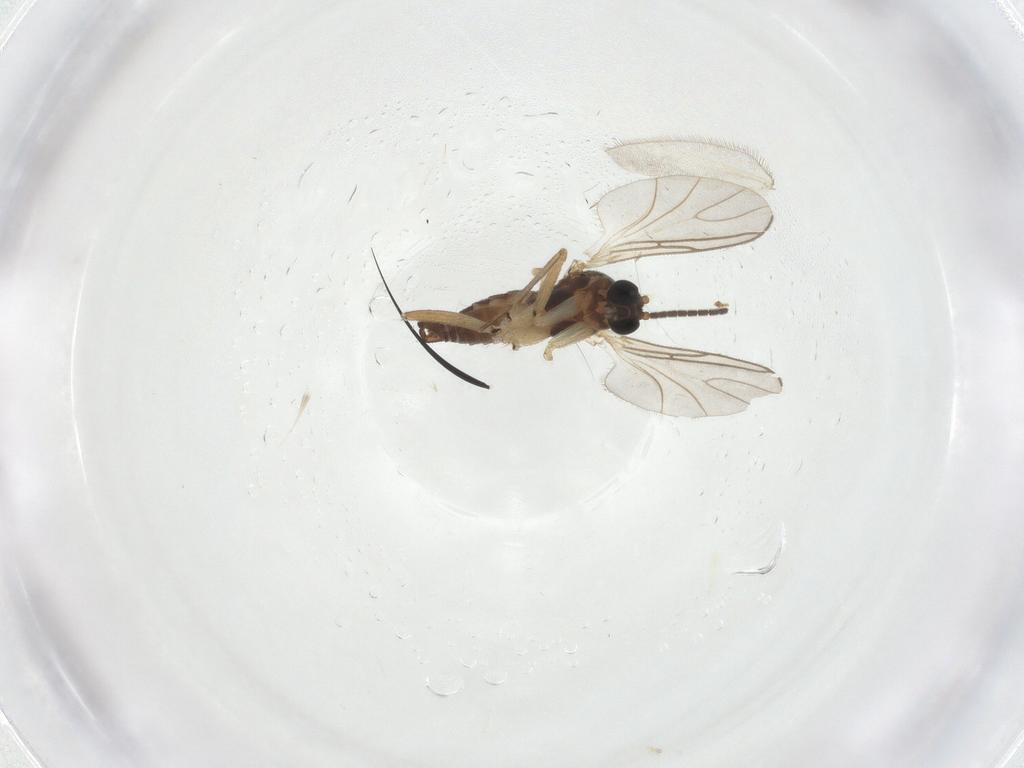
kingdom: Animalia
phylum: Arthropoda
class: Insecta
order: Diptera
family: Sciaridae
